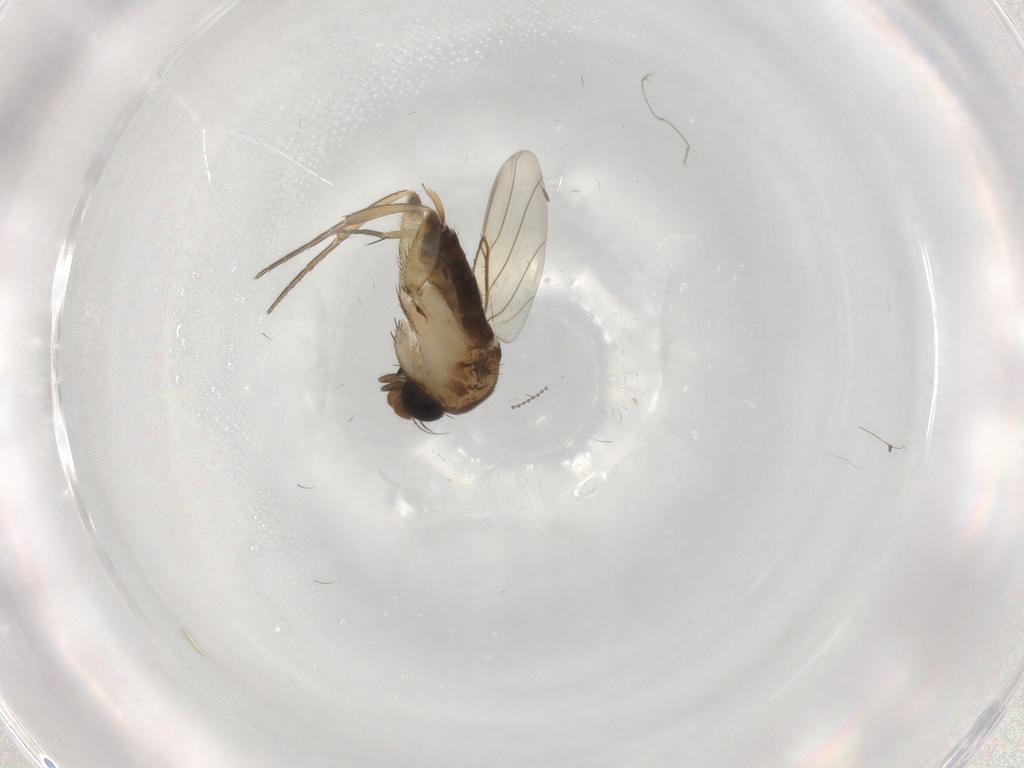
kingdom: Animalia
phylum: Arthropoda
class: Insecta
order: Diptera
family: Phoridae
